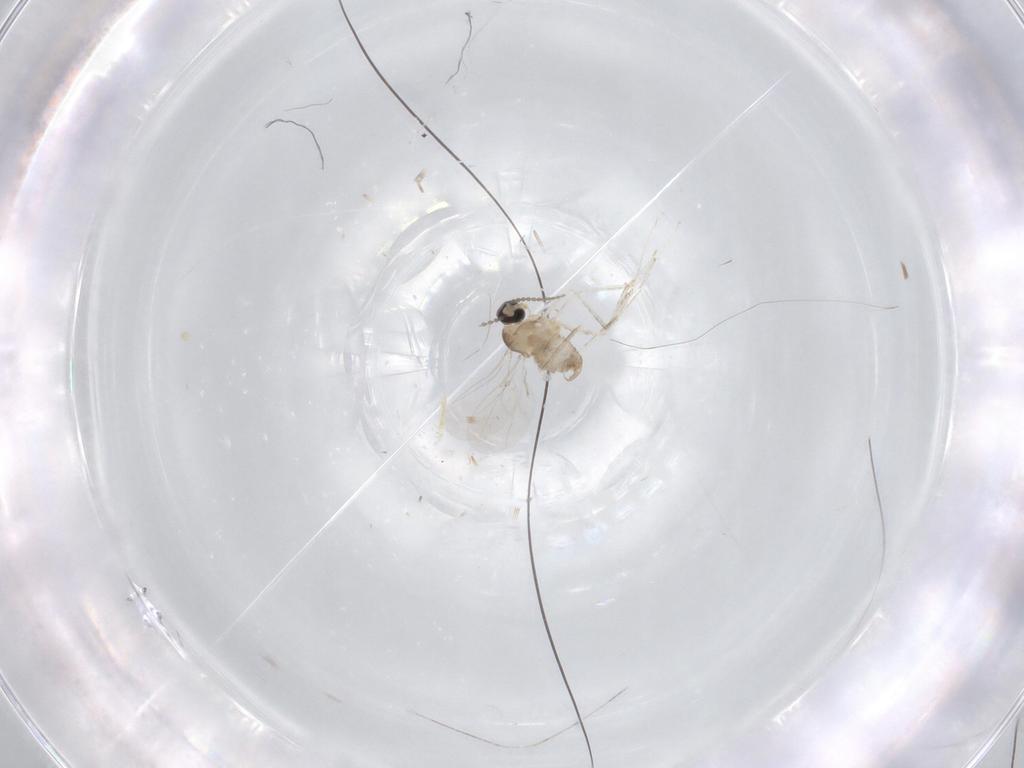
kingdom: Animalia
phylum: Arthropoda
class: Insecta
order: Diptera
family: Cecidomyiidae
